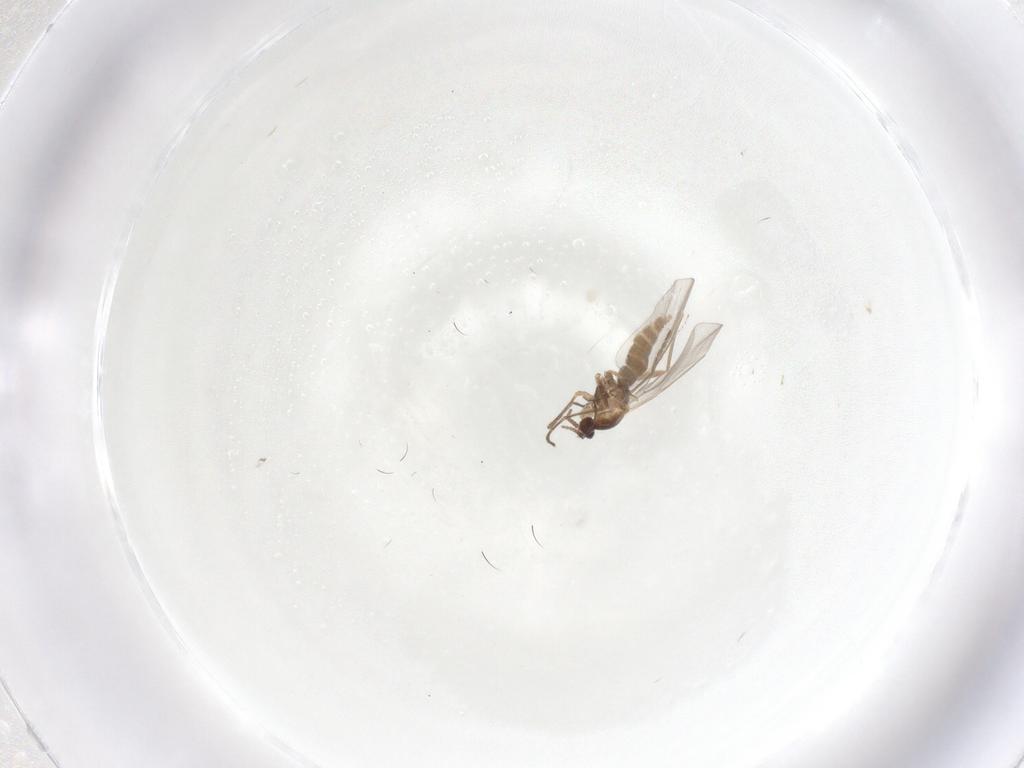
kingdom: Animalia
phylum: Arthropoda
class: Insecta
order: Diptera
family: Cecidomyiidae
